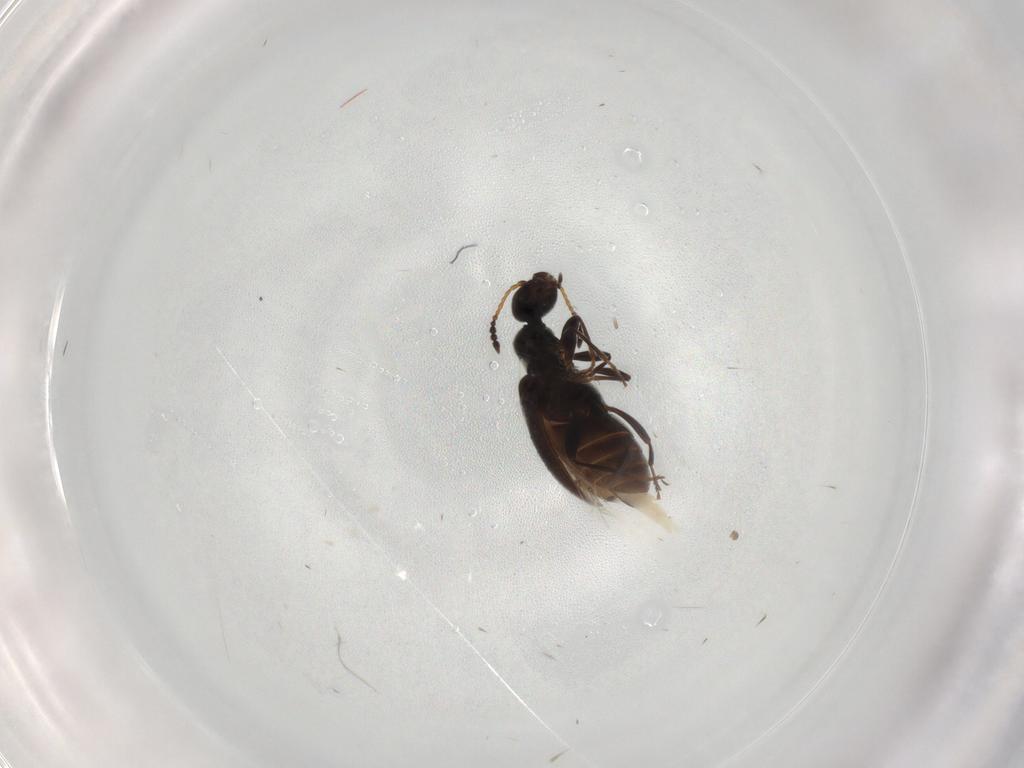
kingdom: Animalia
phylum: Arthropoda
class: Insecta
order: Coleoptera
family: Anthicidae
